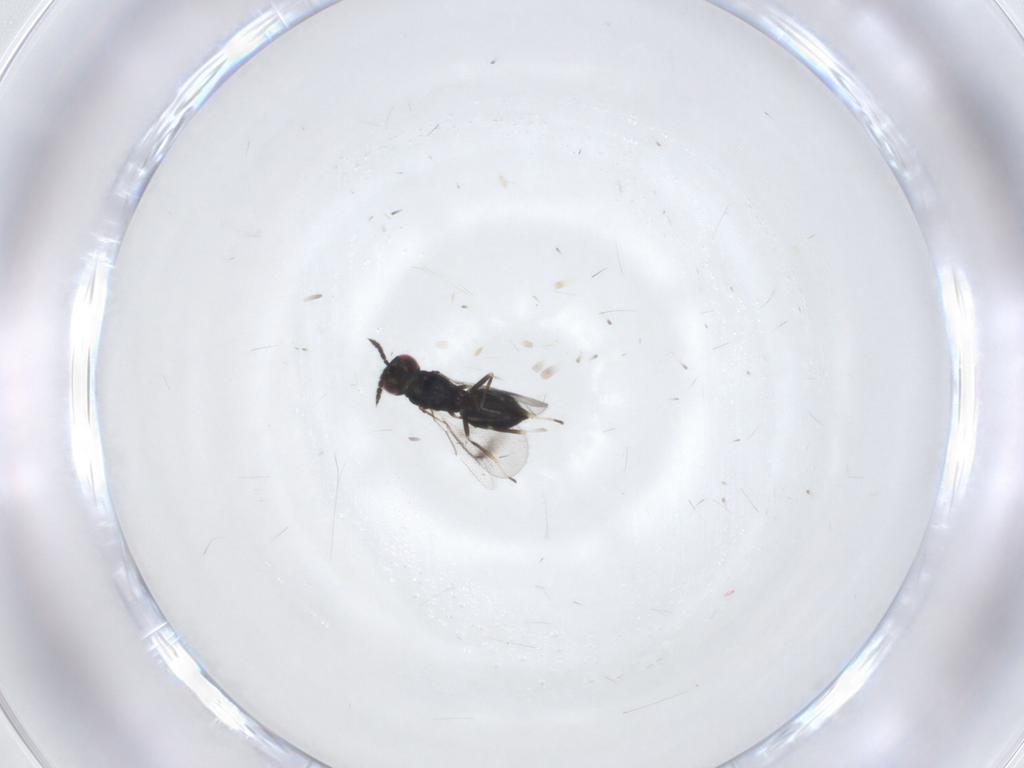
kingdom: Animalia
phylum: Arthropoda
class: Insecta
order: Hymenoptera
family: Eulophidae
